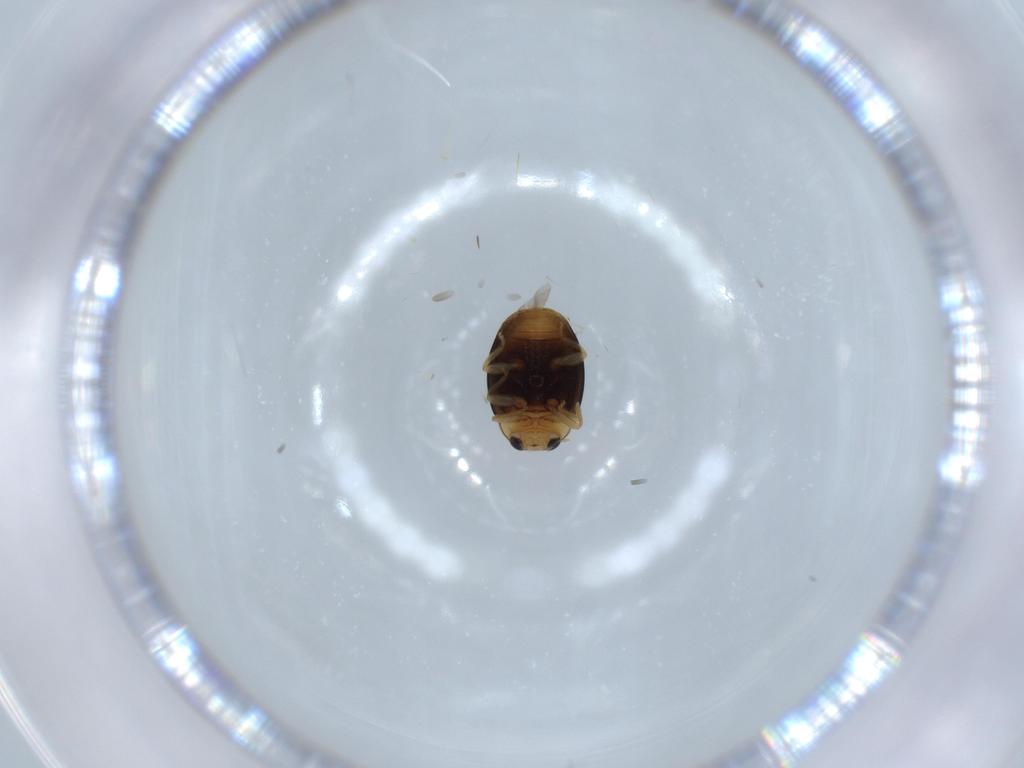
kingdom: Animalia
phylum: Arthropoda
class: Insecta
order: Coleoptera
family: Coccinellidae
